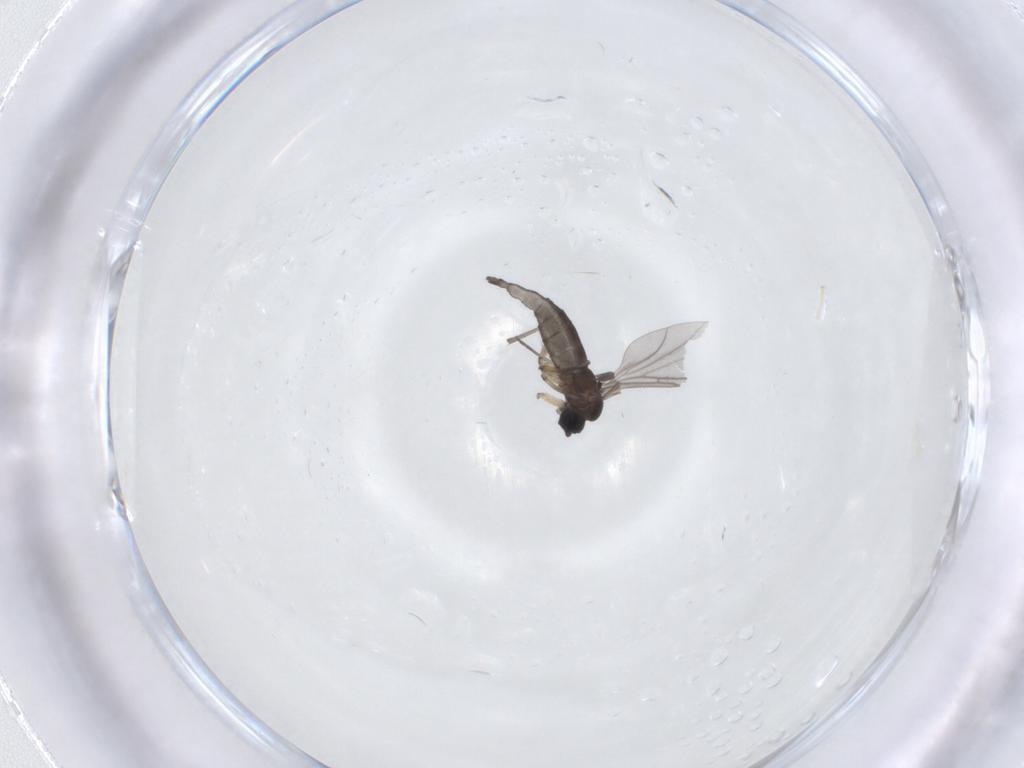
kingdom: Animalia
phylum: Arthropoda
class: Insecta
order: Diptera
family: Sciaridae
